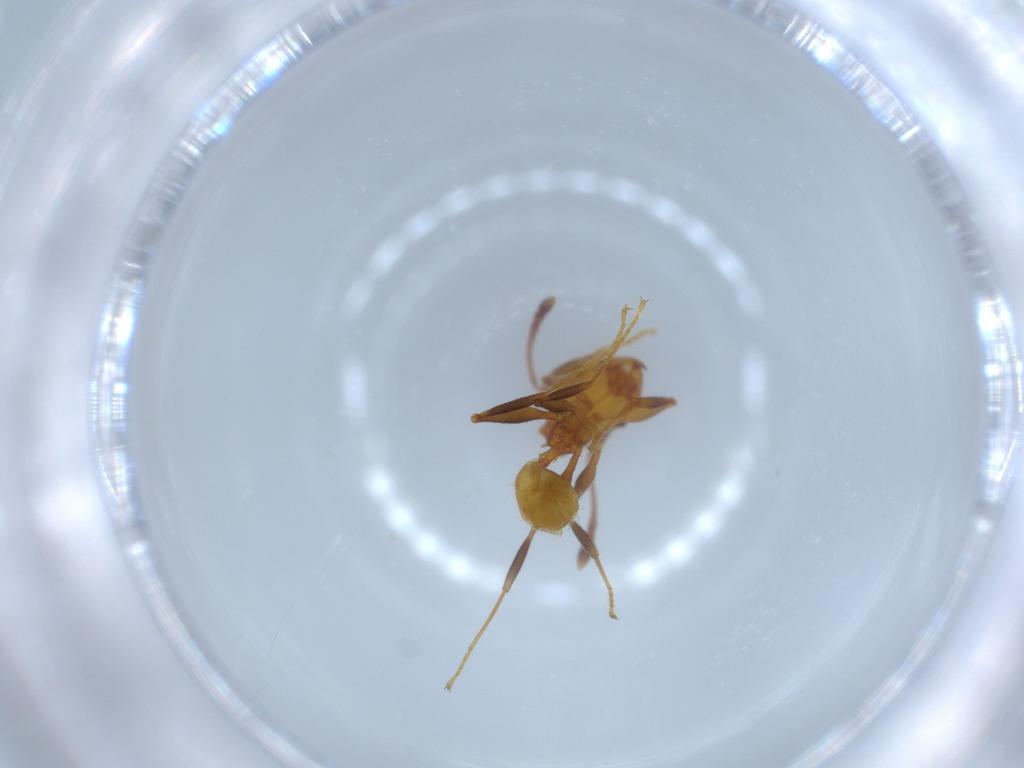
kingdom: Animalia
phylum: Arthropoda
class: Insecta
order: Hymenoptera
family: Formicidae
